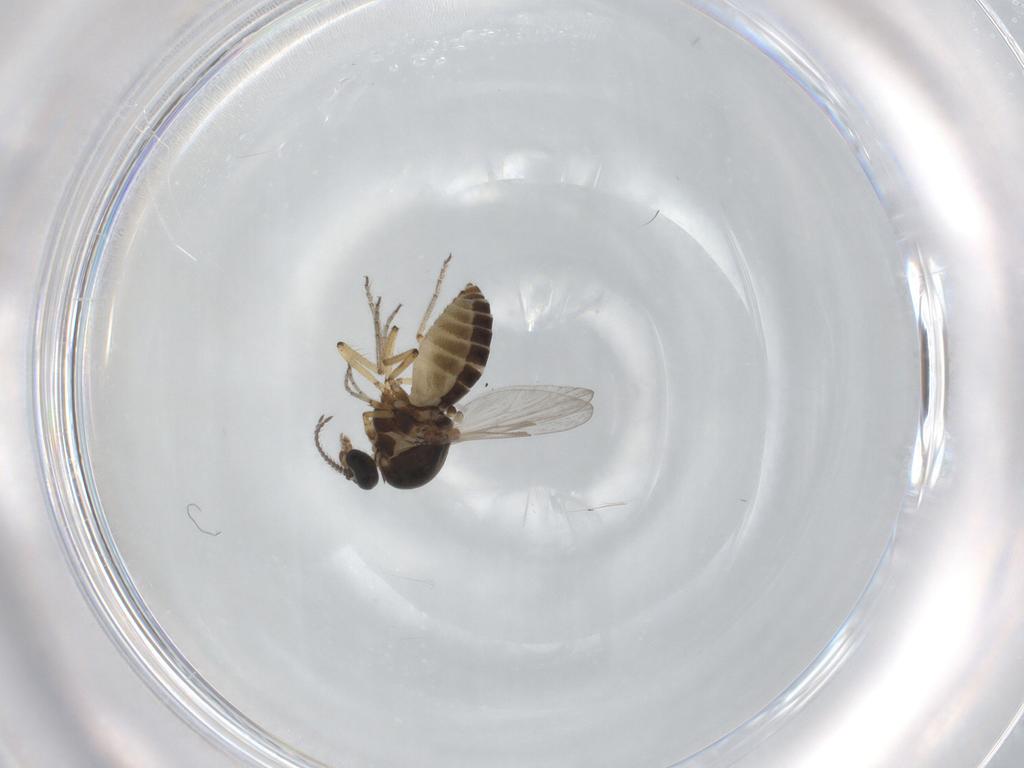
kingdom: Animalia
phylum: Arthropoda
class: Insecta
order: Diptera
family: Ceratopogonidae
